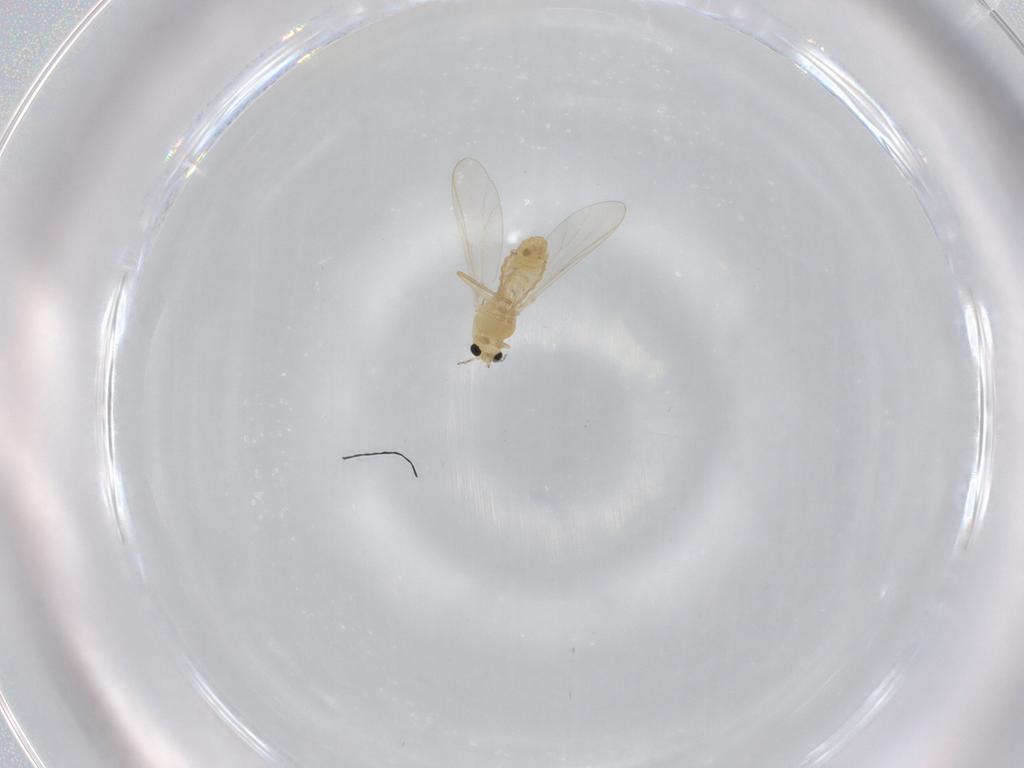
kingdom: Animalia
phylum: Arthropoda
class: Insecta
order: Diptera
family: Chironomidae
